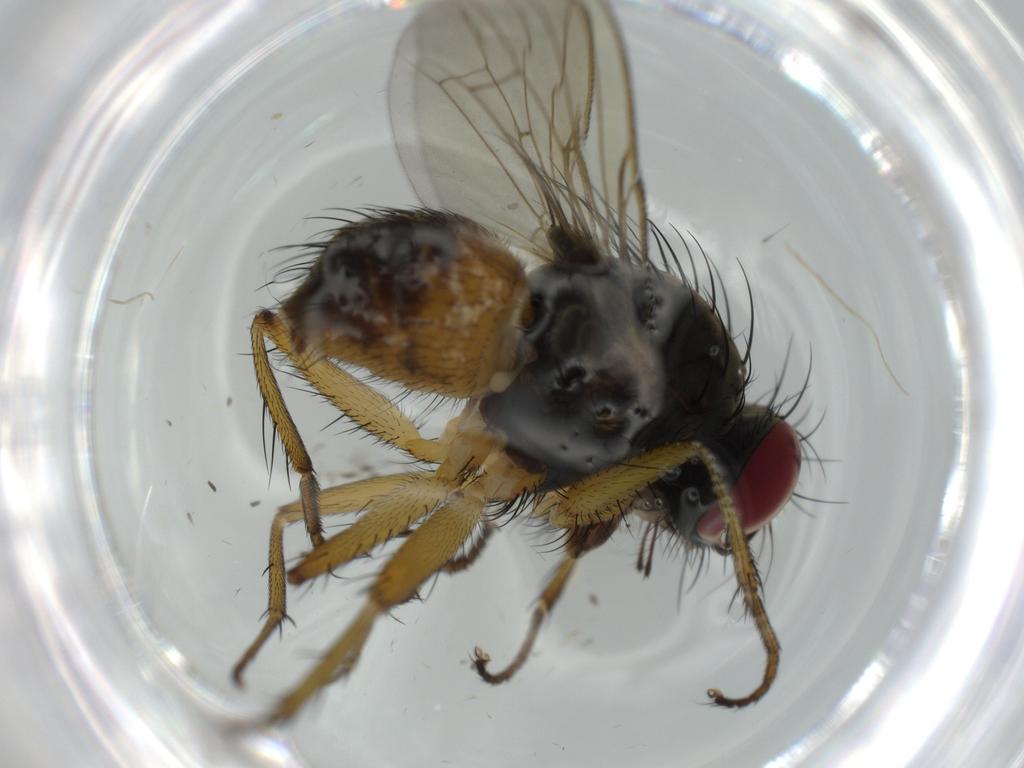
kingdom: Animalia
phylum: Arthropoda
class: Insecta
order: Diptera
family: Muscidae
